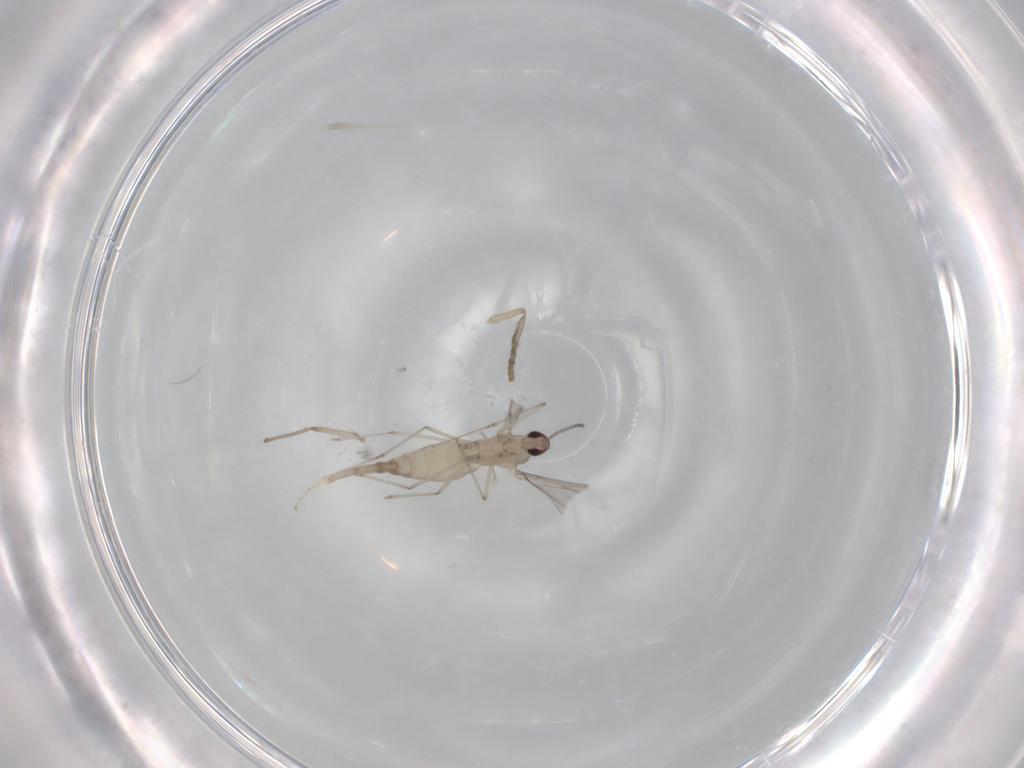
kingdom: Animalia
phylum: Arthropoda
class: Insecta
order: Diptera
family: Cecidomyiidae
